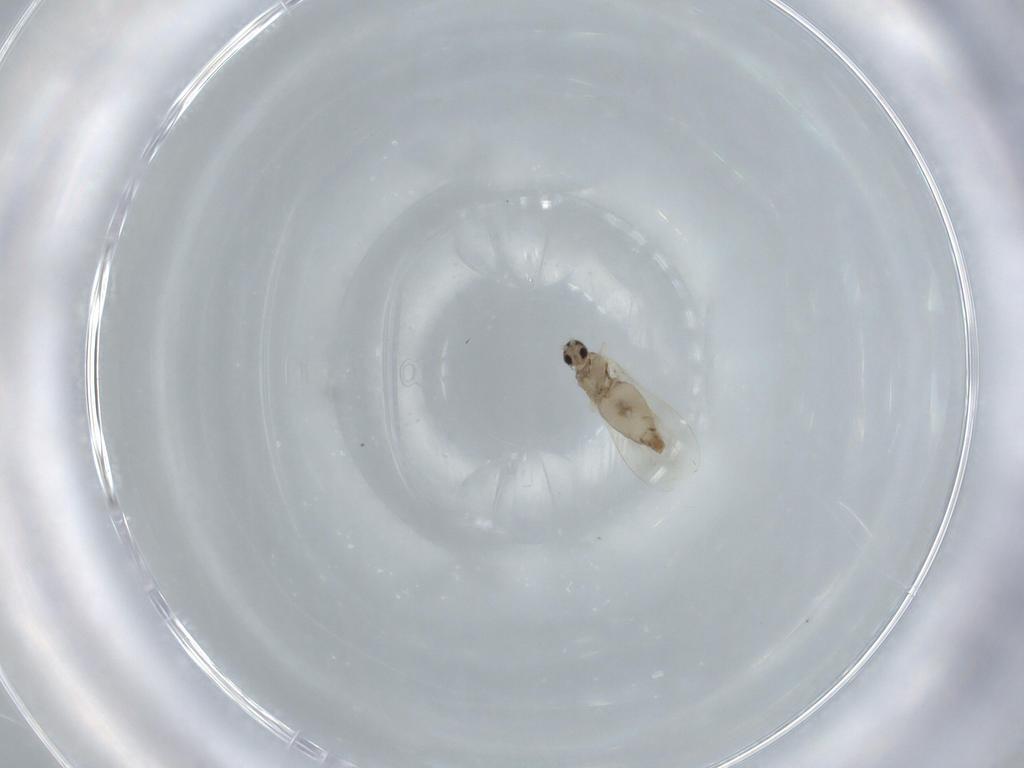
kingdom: Animalia
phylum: Arthropoda
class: Insecta
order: Diptera
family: Cecidomyiidae
